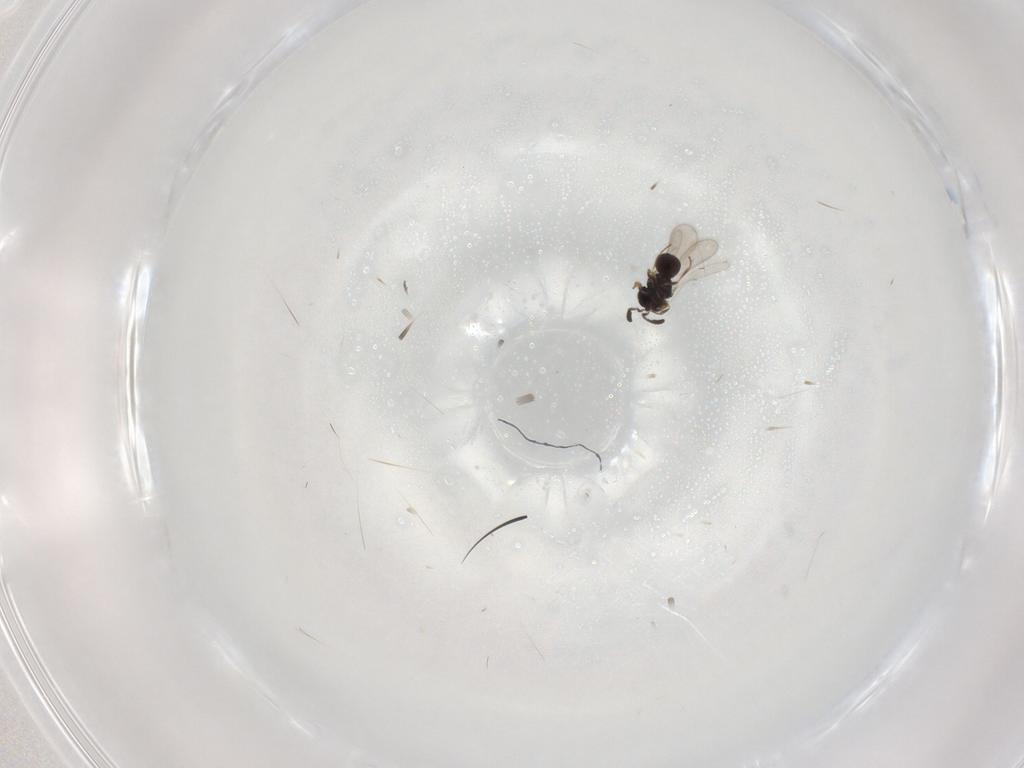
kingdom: Animalia
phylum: Arthropoda
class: Insecta
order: Hymenoptera
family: Scelionidae
